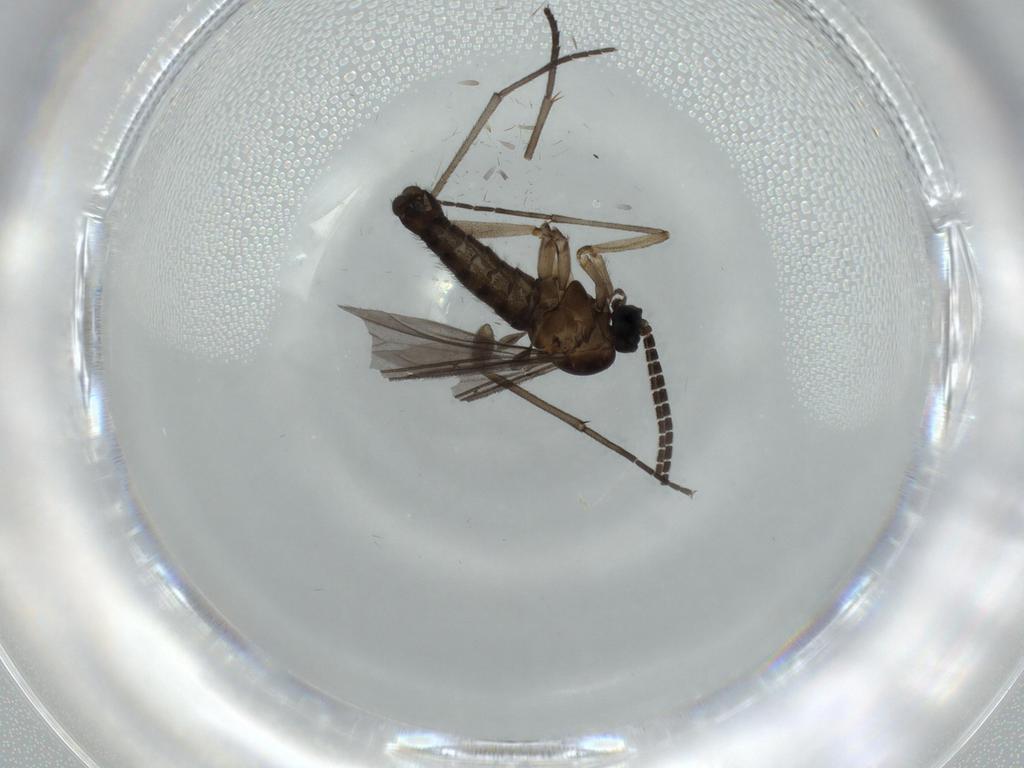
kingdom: Animalia
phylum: Arthropoda
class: Insecta
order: Diptera
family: Sciaridae
